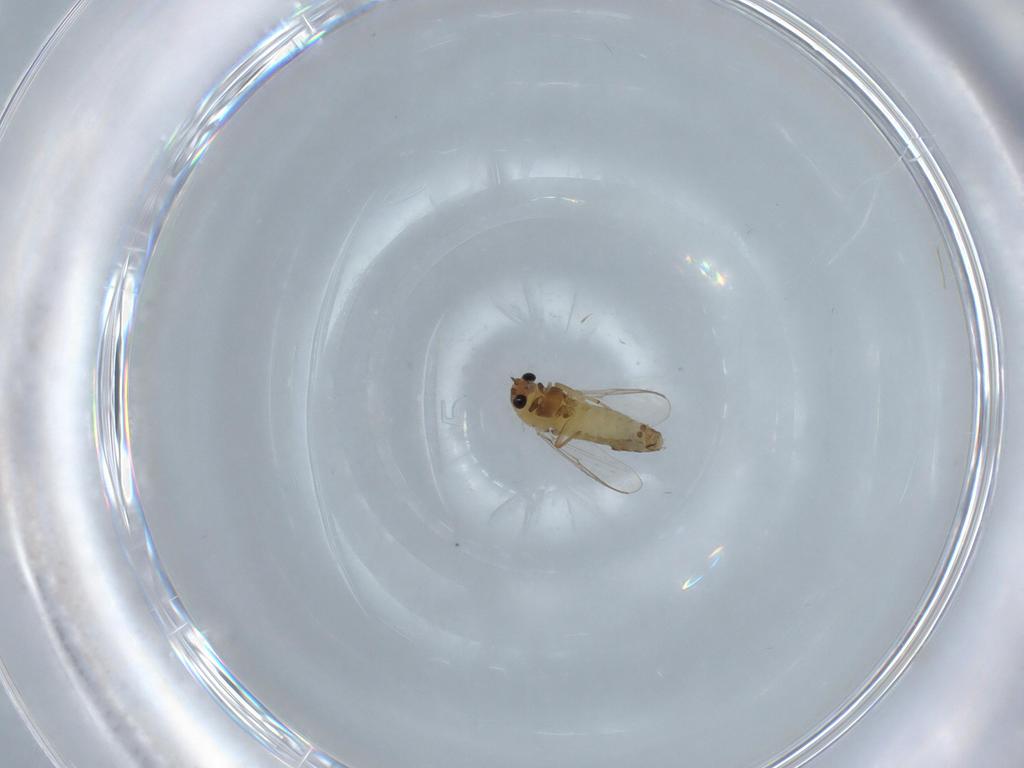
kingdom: Animalia
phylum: Arthropoda
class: Insecta
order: Diptera
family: Chironomidae
